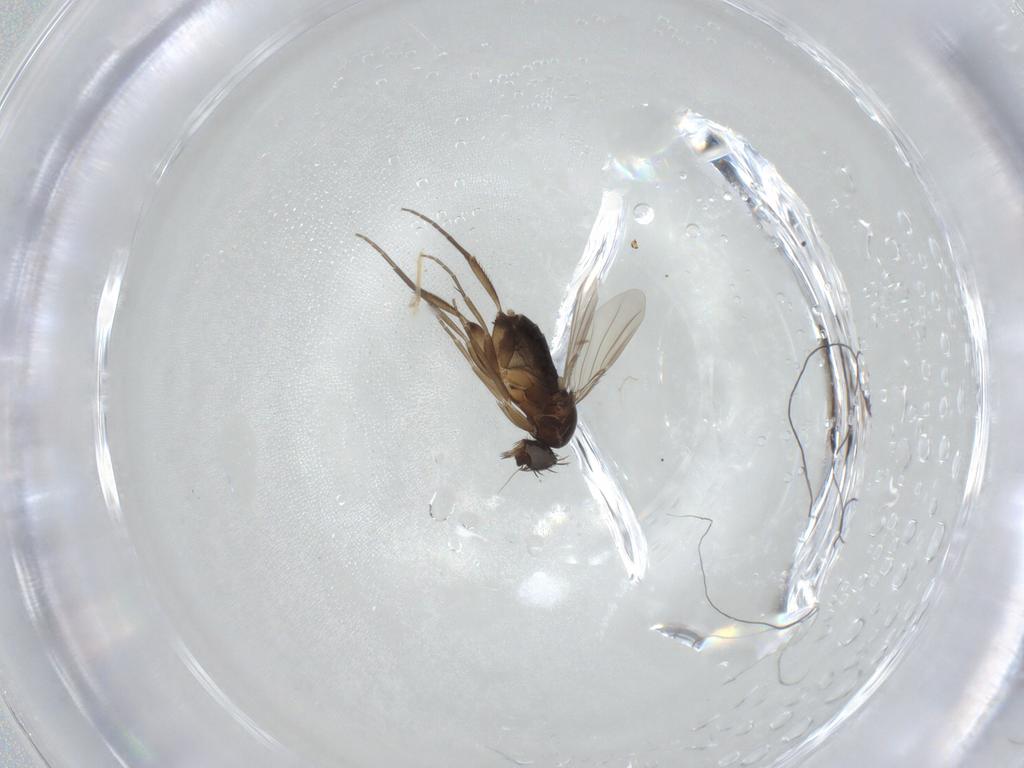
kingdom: Animalia
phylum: Arthropoda
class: Insecta
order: Diptera
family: Phoridae
